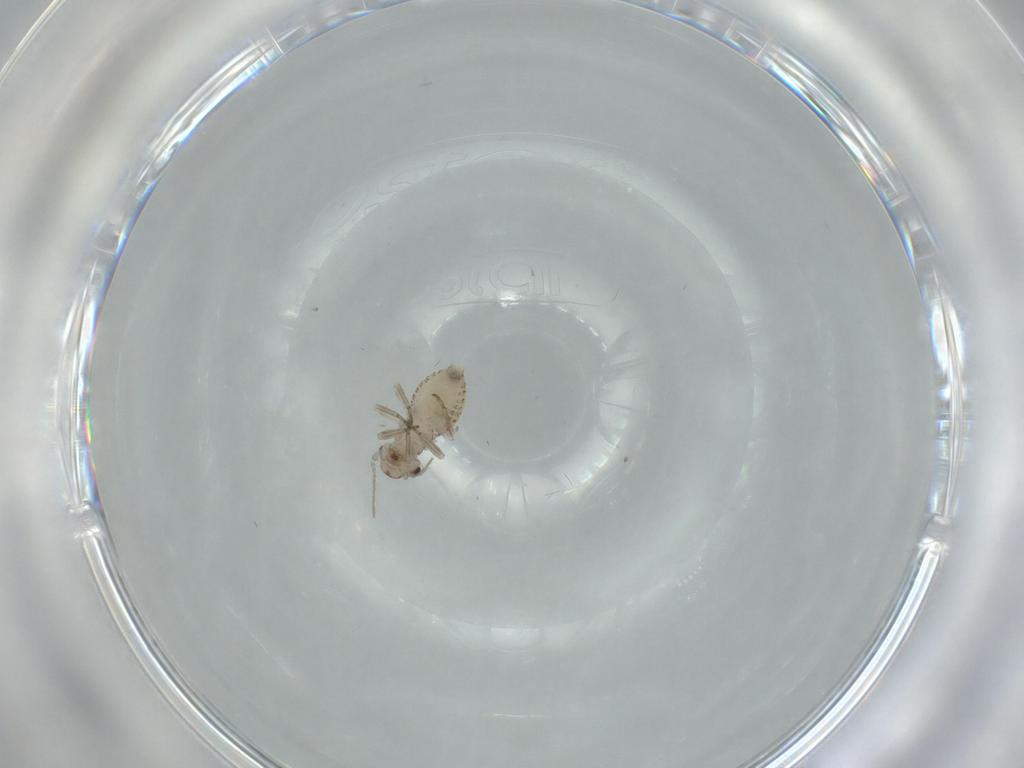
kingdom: Animalia
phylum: Arthropoda
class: Insecta
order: Psocodea
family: Psocidae
